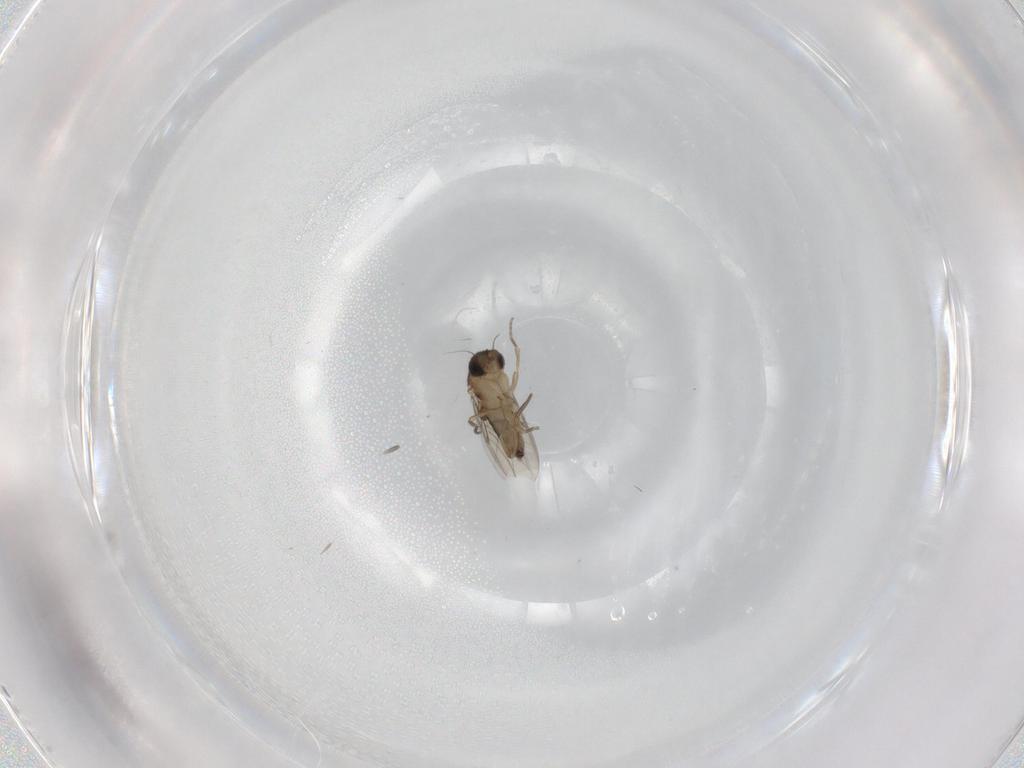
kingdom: Animalia
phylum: Arthropoda
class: Insecta
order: Diptera
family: Phoridae
